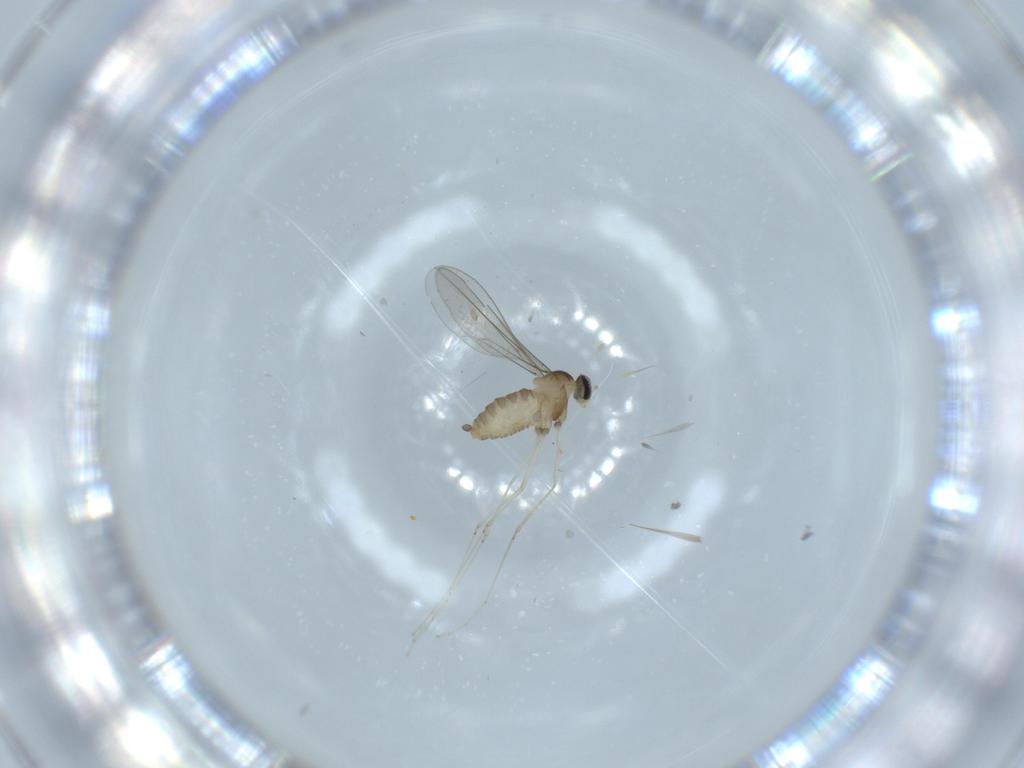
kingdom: Animalia
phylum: Arthropoda
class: Insecta
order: Diptera
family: Cecidomyiidae
